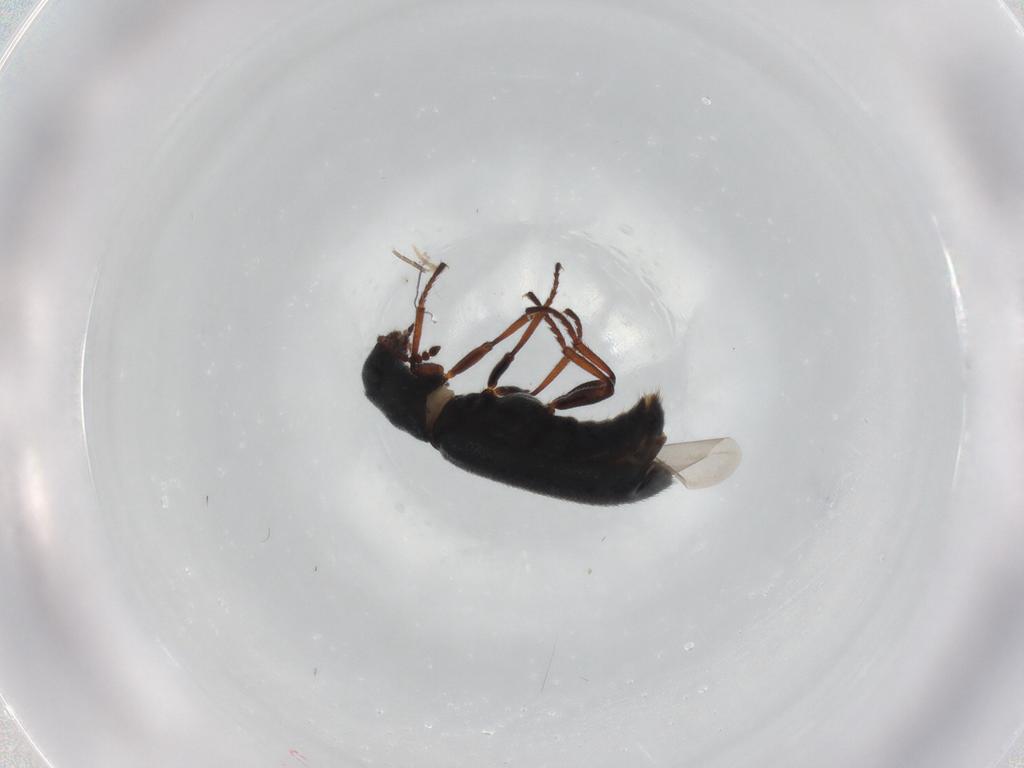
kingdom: Animalia
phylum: Arthropoda
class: Insecta
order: Coleoptera
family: Melyridae
